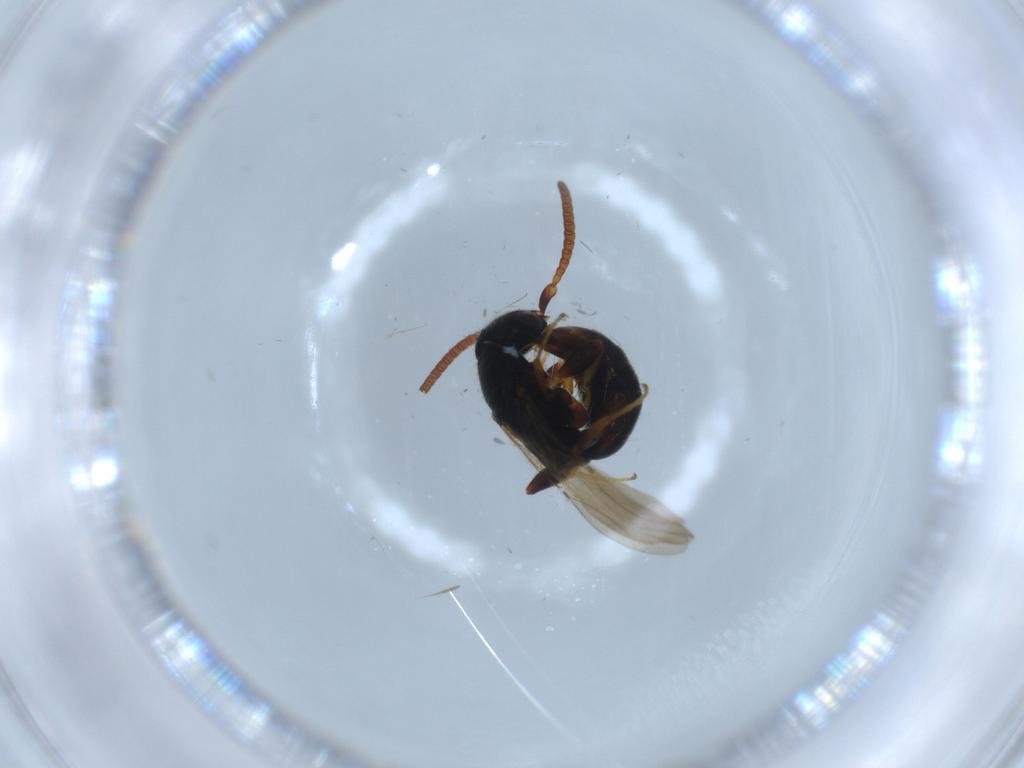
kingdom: Animalia
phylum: Arthropoda
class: Insecta
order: Hymenoptera
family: Bethylidae
